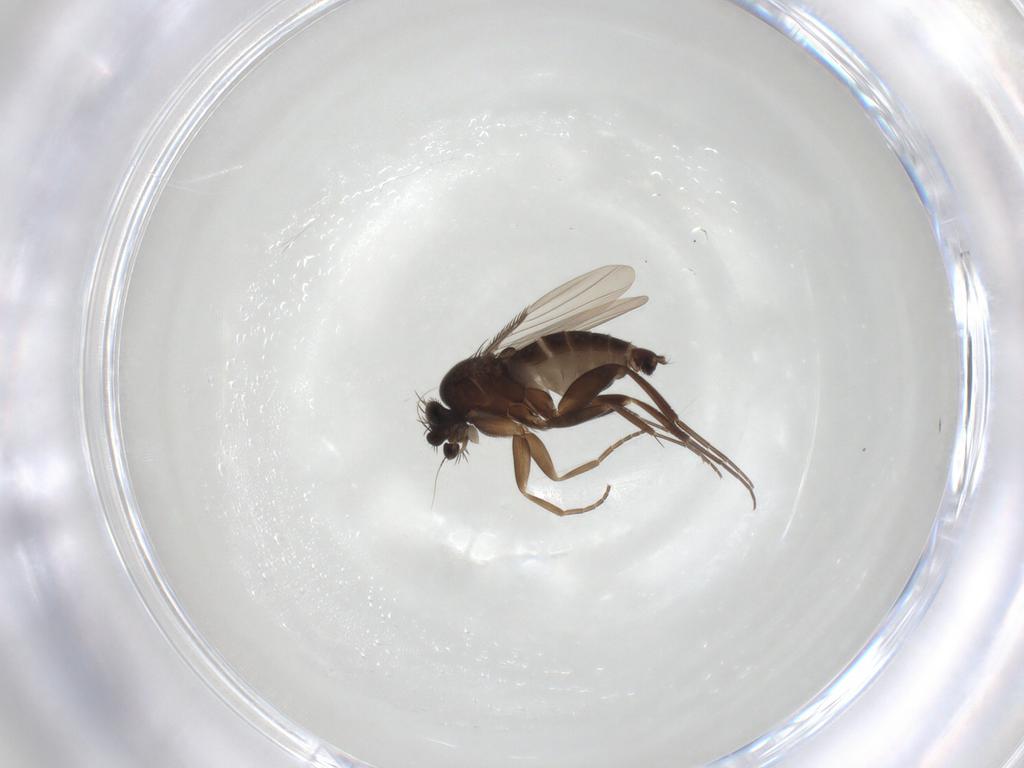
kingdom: Animalia
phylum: Arthropoda
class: Insecta
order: Diptera
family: Phoridae
